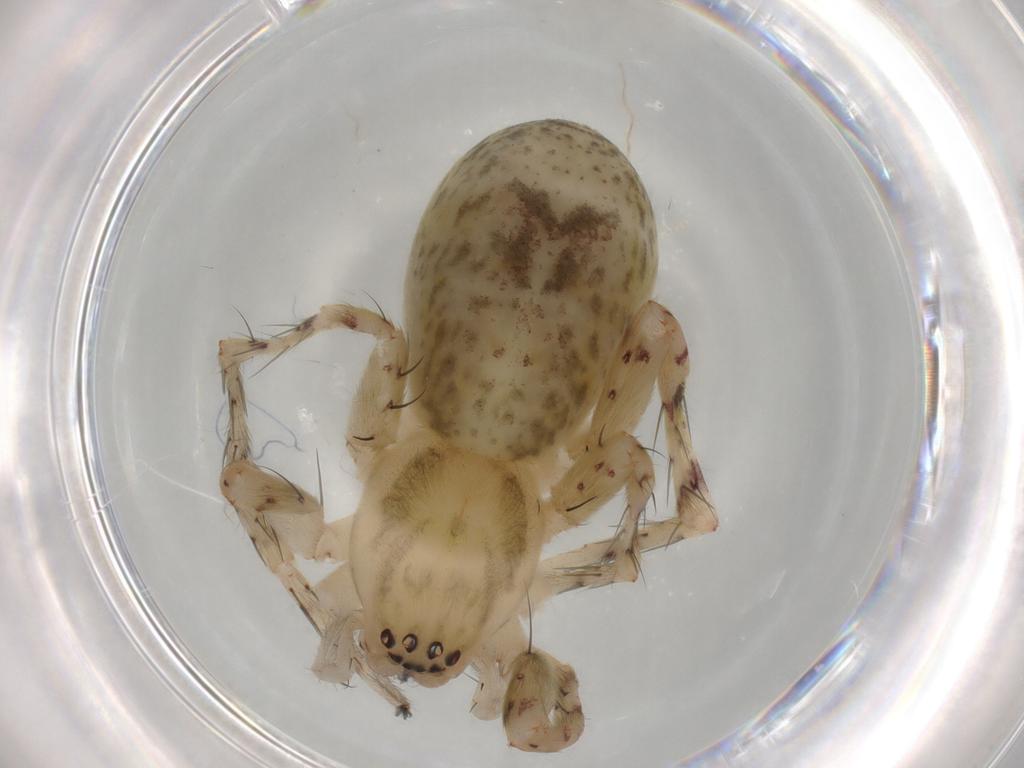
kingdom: Animalia
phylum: Arthropoda
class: Arachnida
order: Araneae
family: Anyphaenidae
